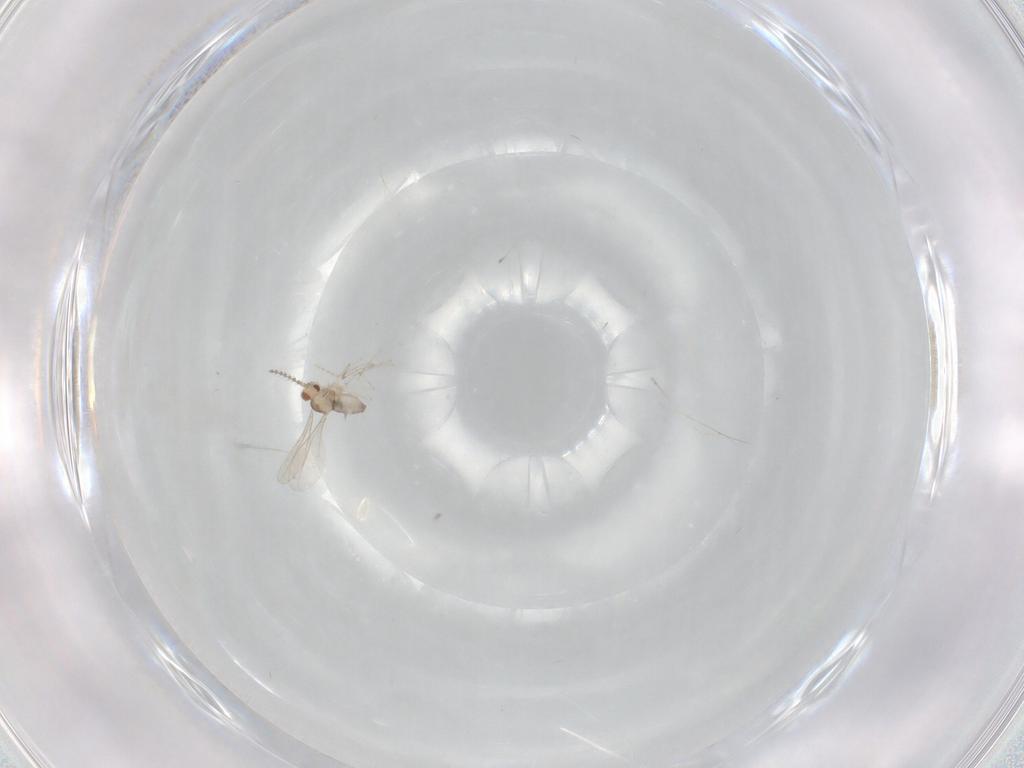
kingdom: Animalia
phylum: Arthropoda
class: Insecta
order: Diptera
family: Cecidomyiidae
